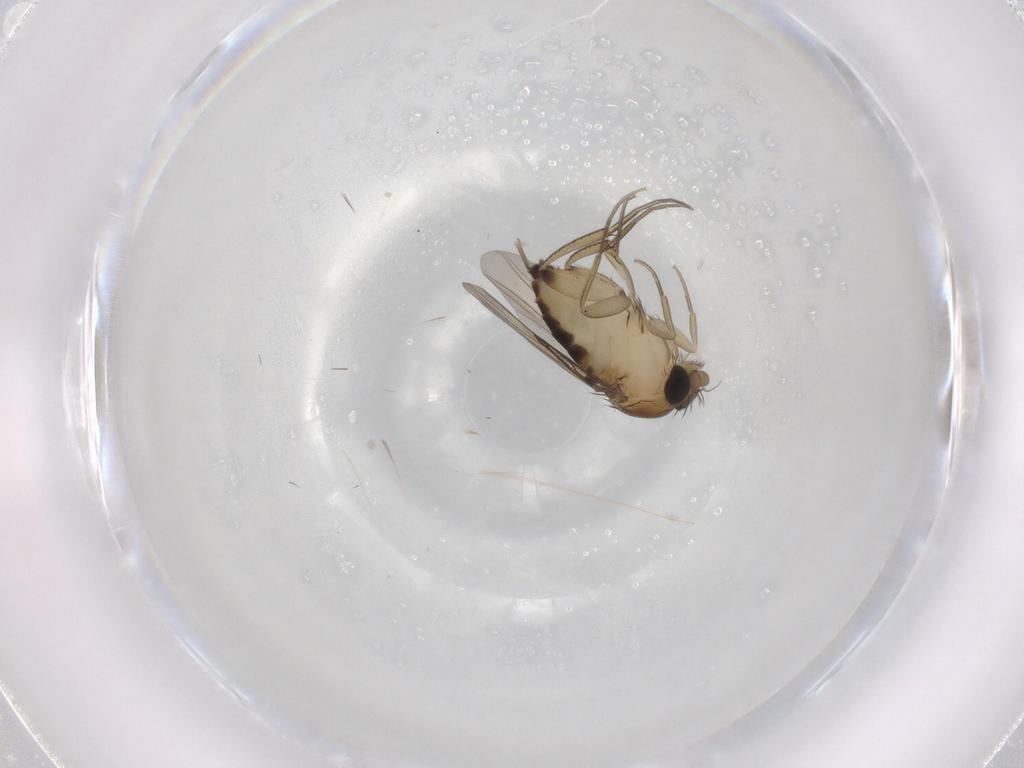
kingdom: Animalia
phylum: Arthropoda
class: Insecta
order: Diptera
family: Phoridae
